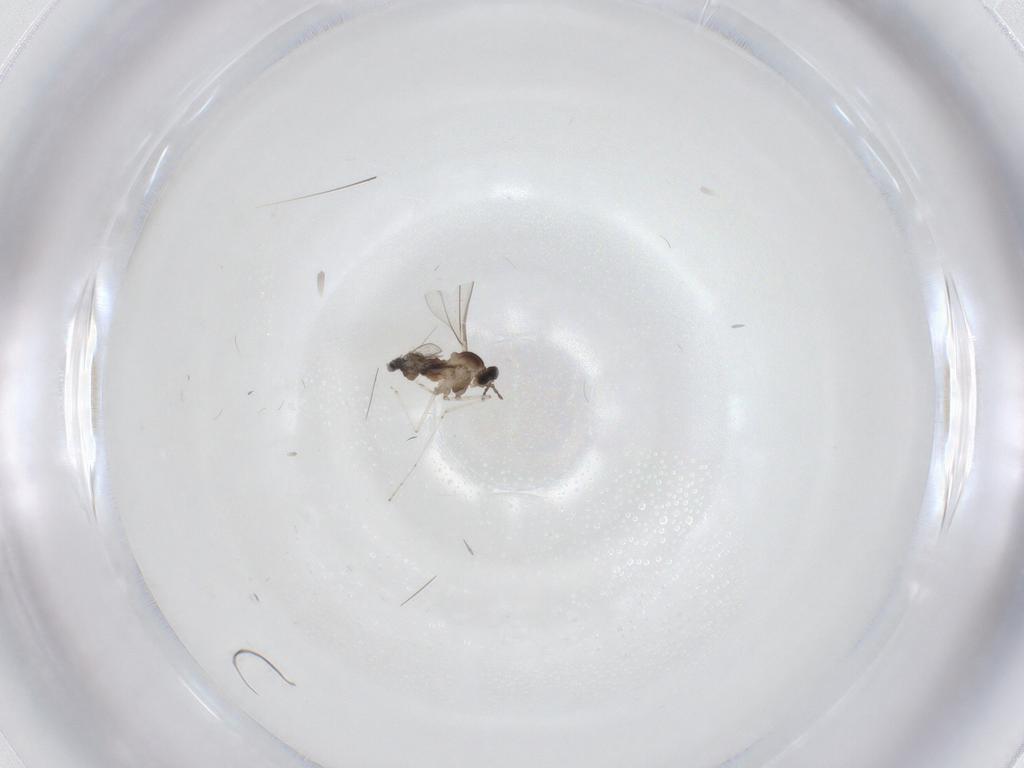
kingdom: Animalia
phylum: Arthropoda
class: Insecta
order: Diptera
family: Cecidomyiidae
